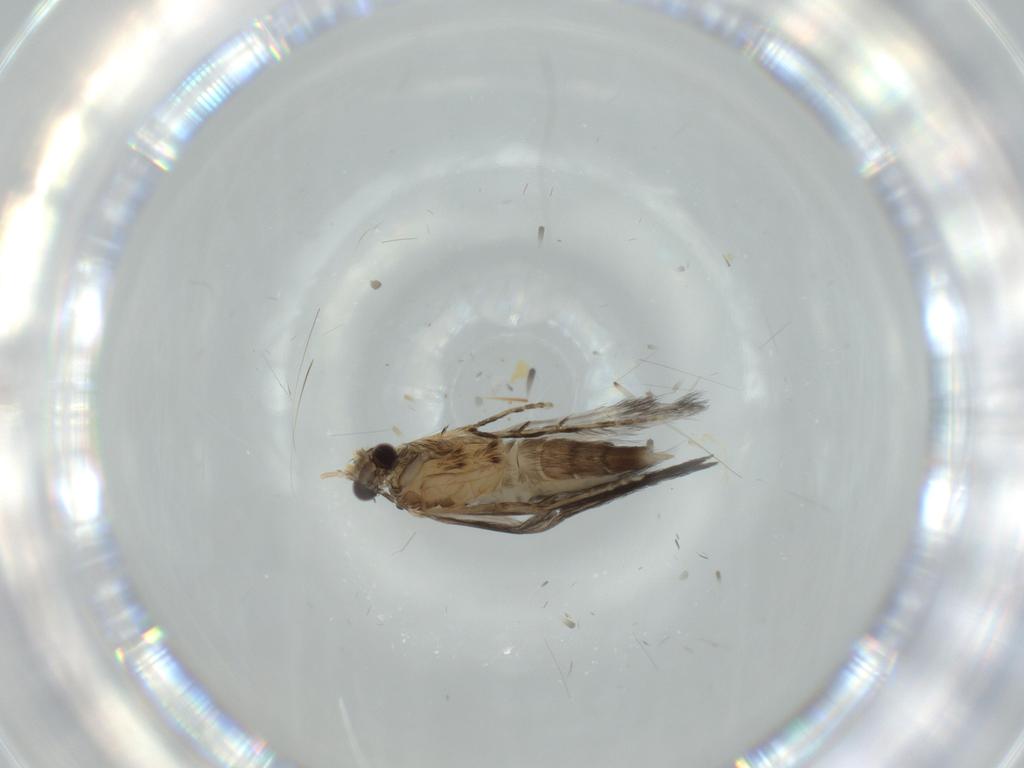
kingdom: Animalia
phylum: Arthropoda
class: Insecta
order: Trichoptera
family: Hydroptilidae
